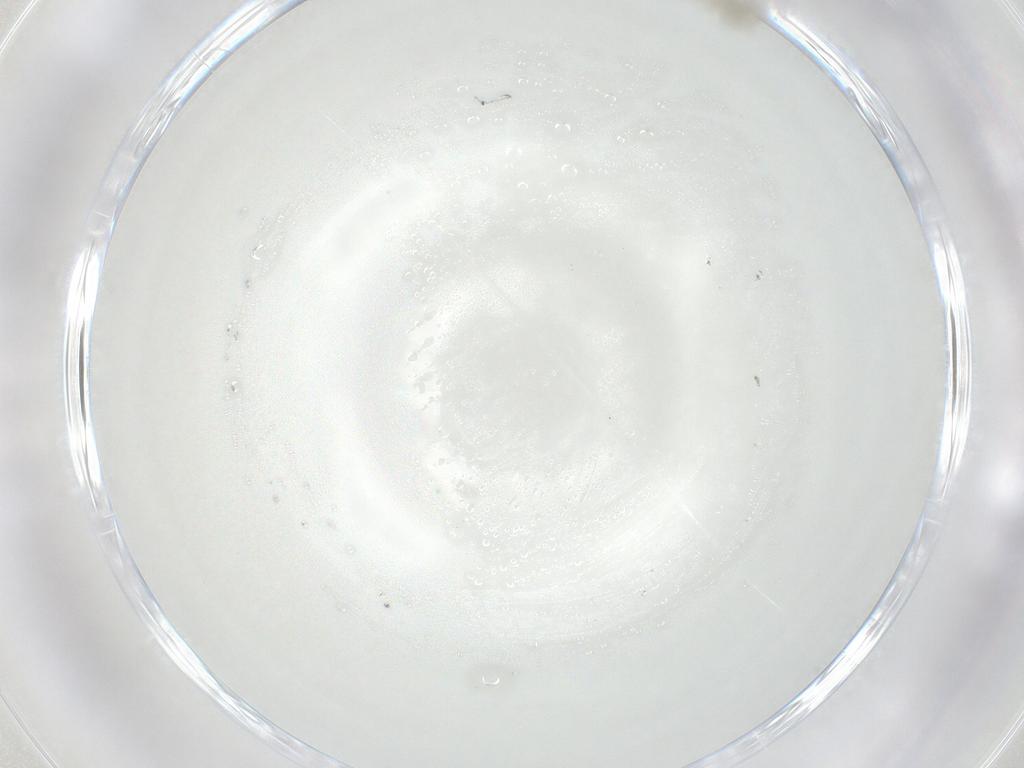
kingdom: Animalia
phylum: Arthropoda
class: Insecta
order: Diptera
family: Cecidomyiidae
